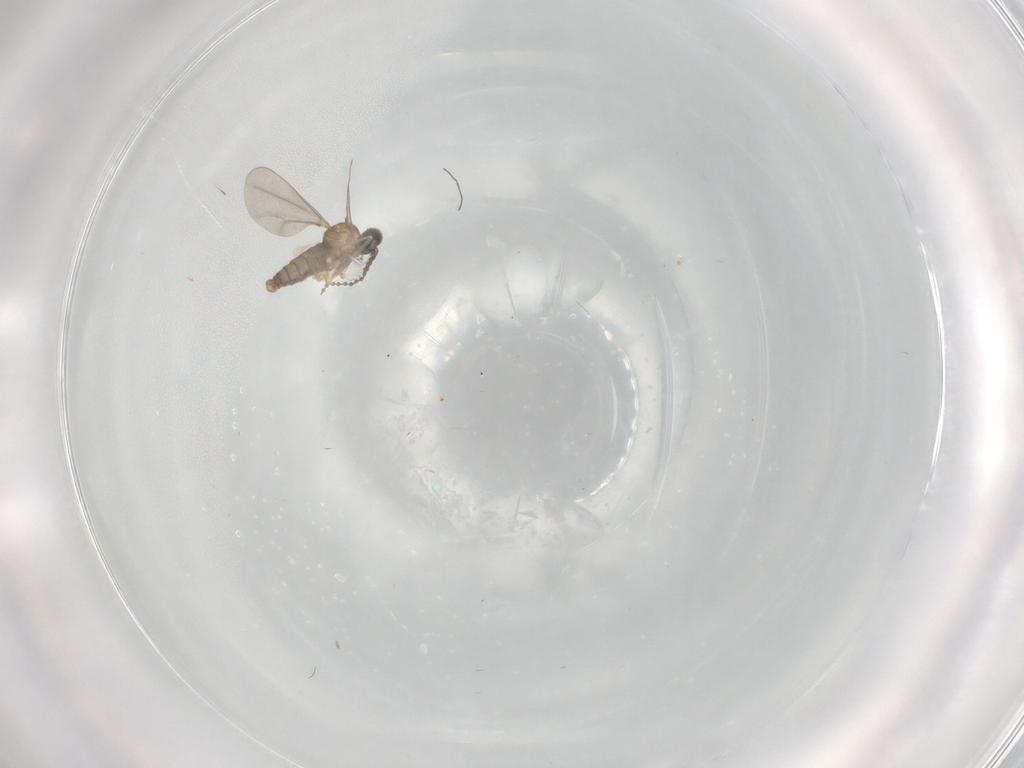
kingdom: Animalia
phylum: Arthropoda
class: Insecta
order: Diptera
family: Cecidomyiidae
